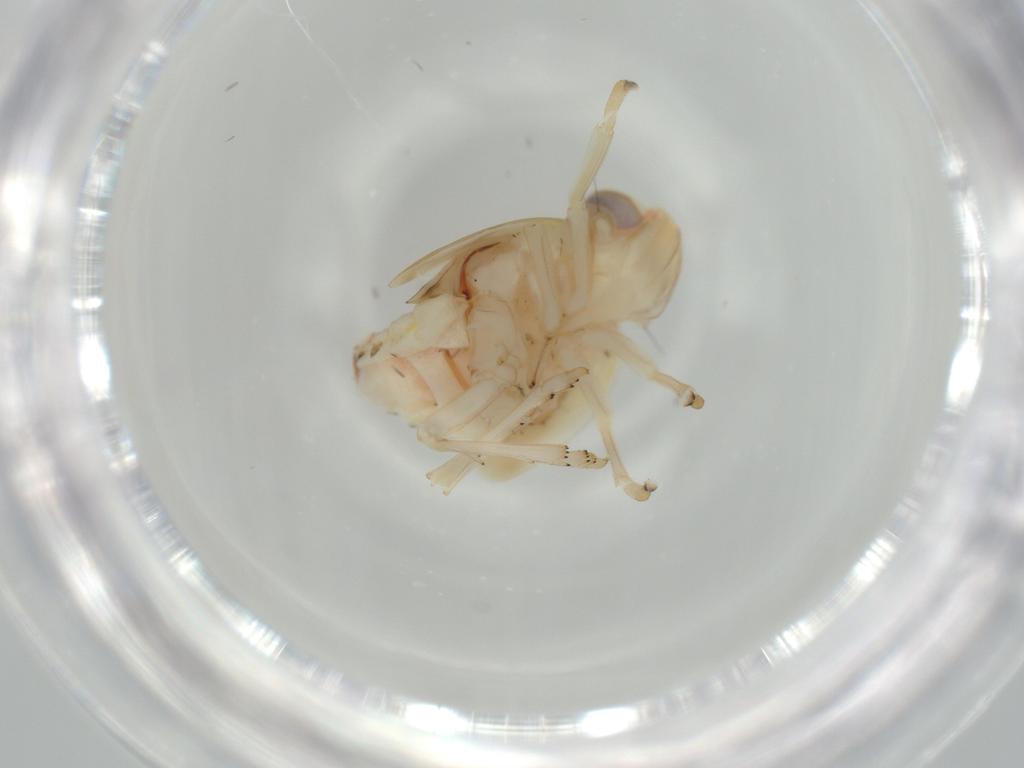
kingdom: Animalia
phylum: Arthropoda
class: Insecta
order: Hemiptera
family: Nogodinidae
